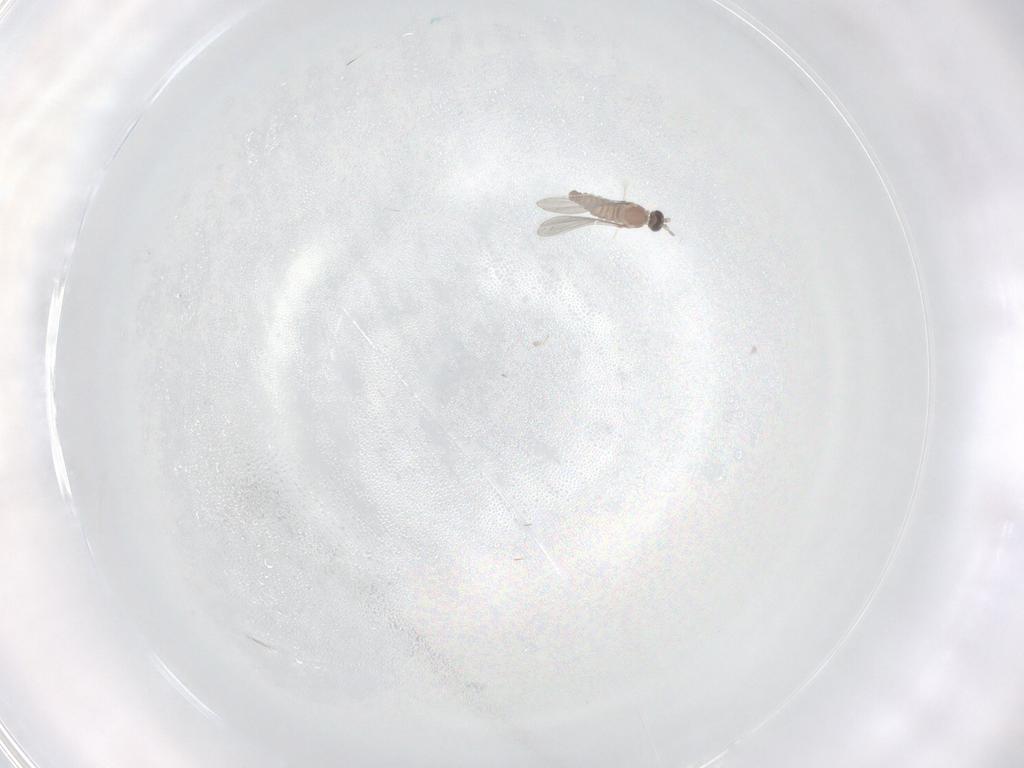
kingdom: Animalia
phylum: Arthropoda
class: Insecta
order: Diptera
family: Cecidomyiidae
